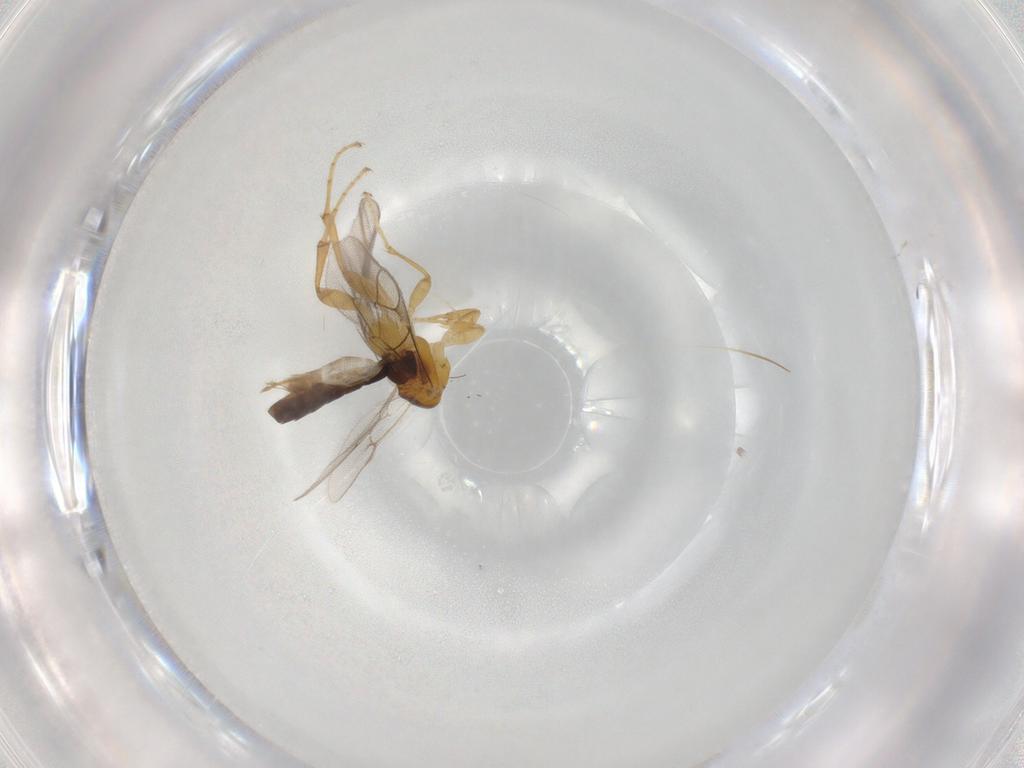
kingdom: Animalia
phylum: Arthropoda
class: Insecta
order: Hymenoptera
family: Ichneumonidae
